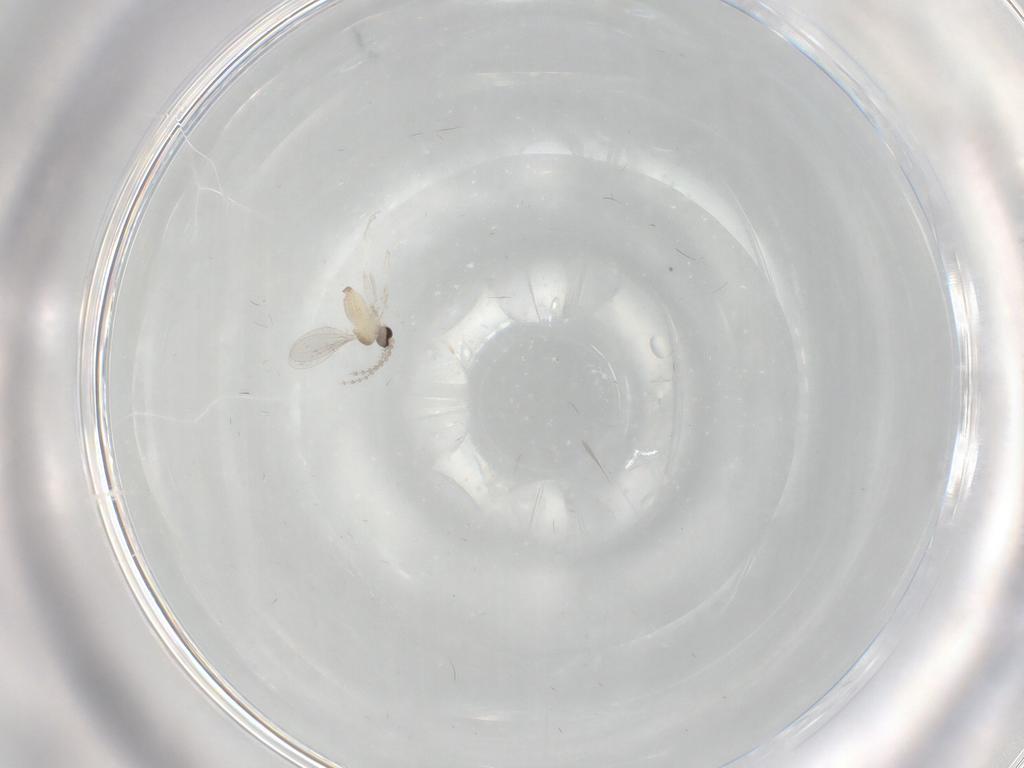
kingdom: Animalia
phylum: Arthropoda
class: Insecta
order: Diptera
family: Cecidomyiidae
